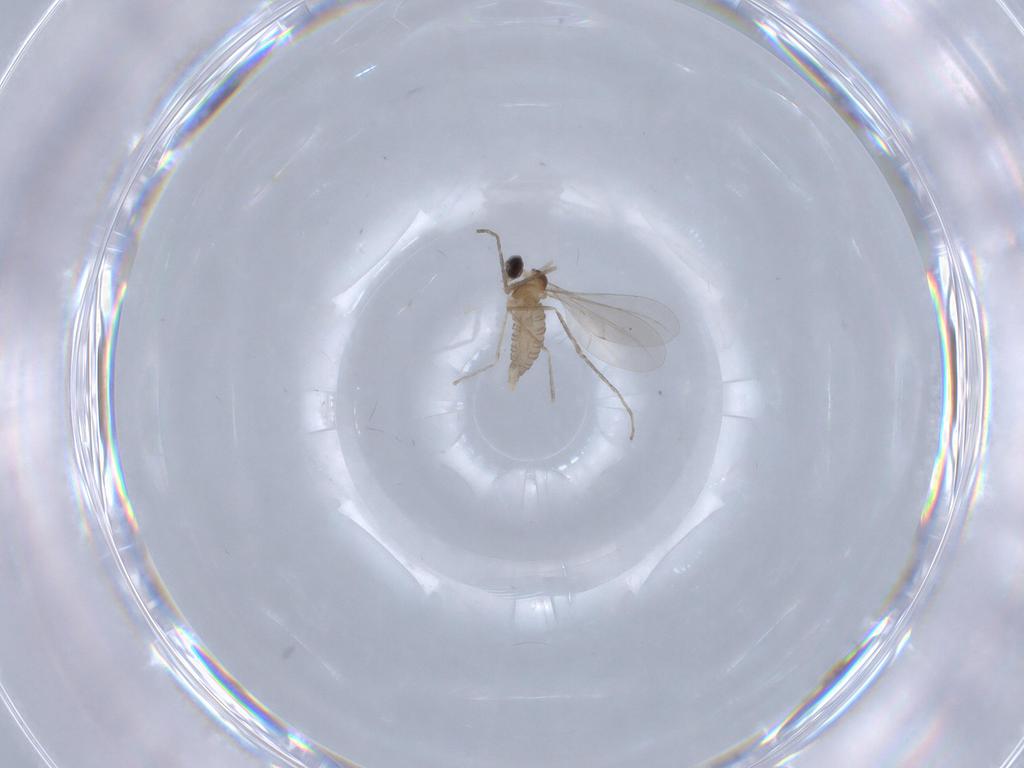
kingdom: Animalia
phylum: Arthropoda
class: Insecta
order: Diptera
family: Cecidomyiidae
